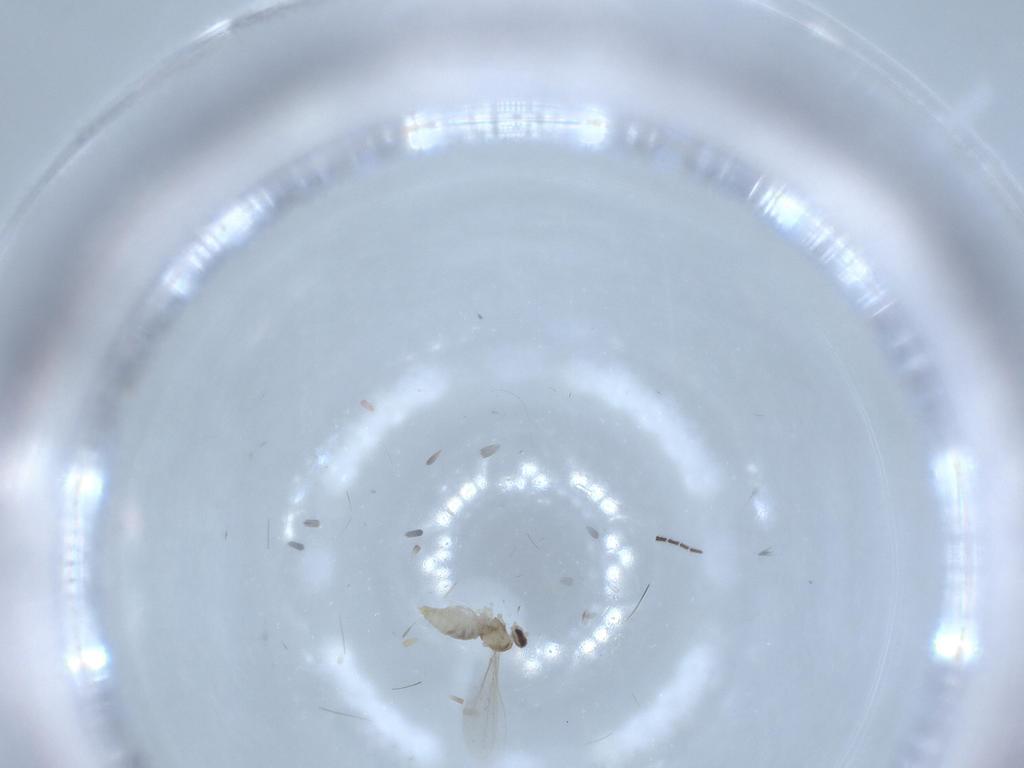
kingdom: Animalia
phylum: Arthropoda
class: Insecta
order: Diptera
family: Sciaridae
